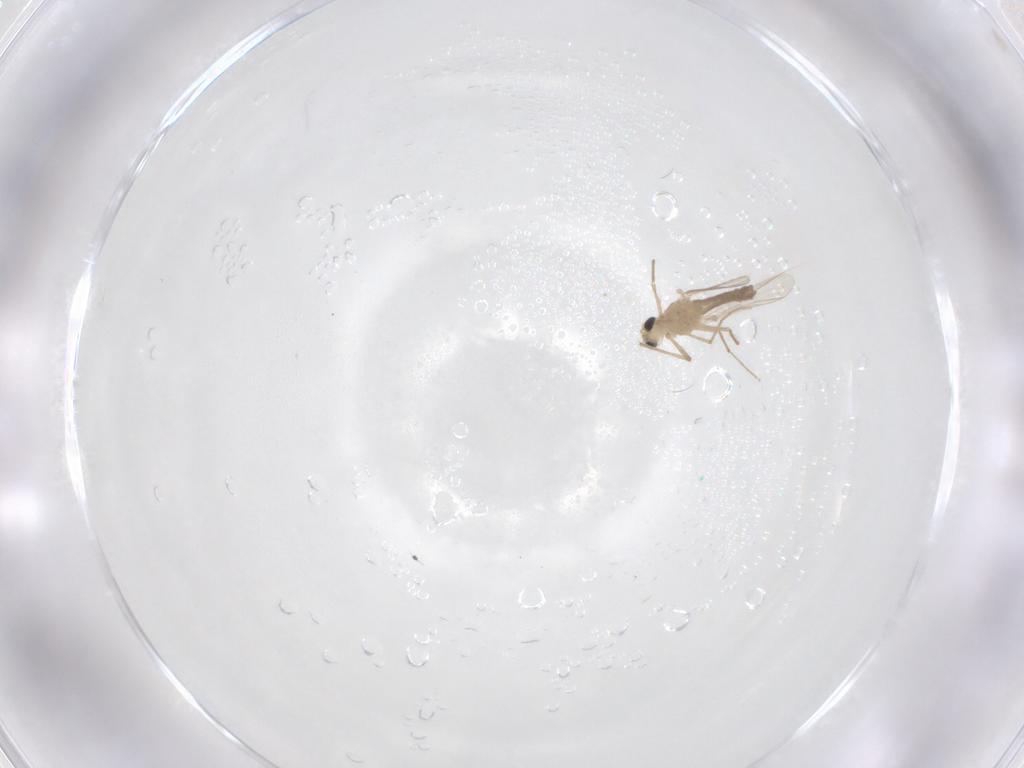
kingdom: Animalia
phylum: Arthropoda
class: Insecta
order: Diptera
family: Chironomidae
